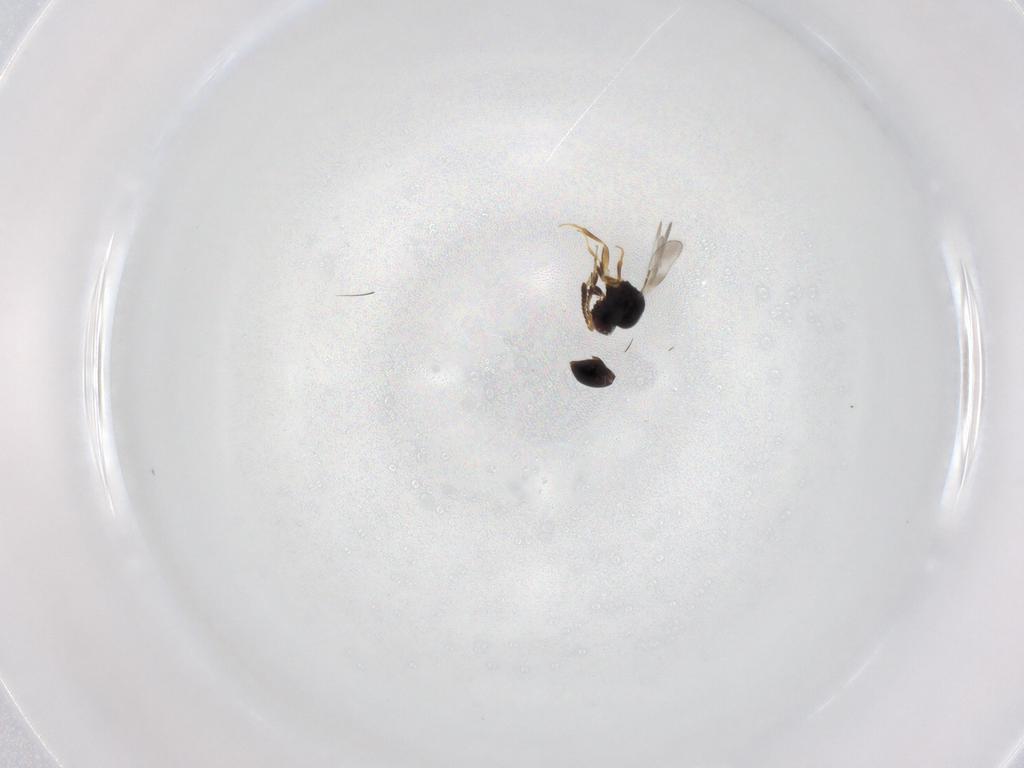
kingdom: Animalia
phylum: Arthropoda
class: Insecta
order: Hymenoptera
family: Ceraphronidae
